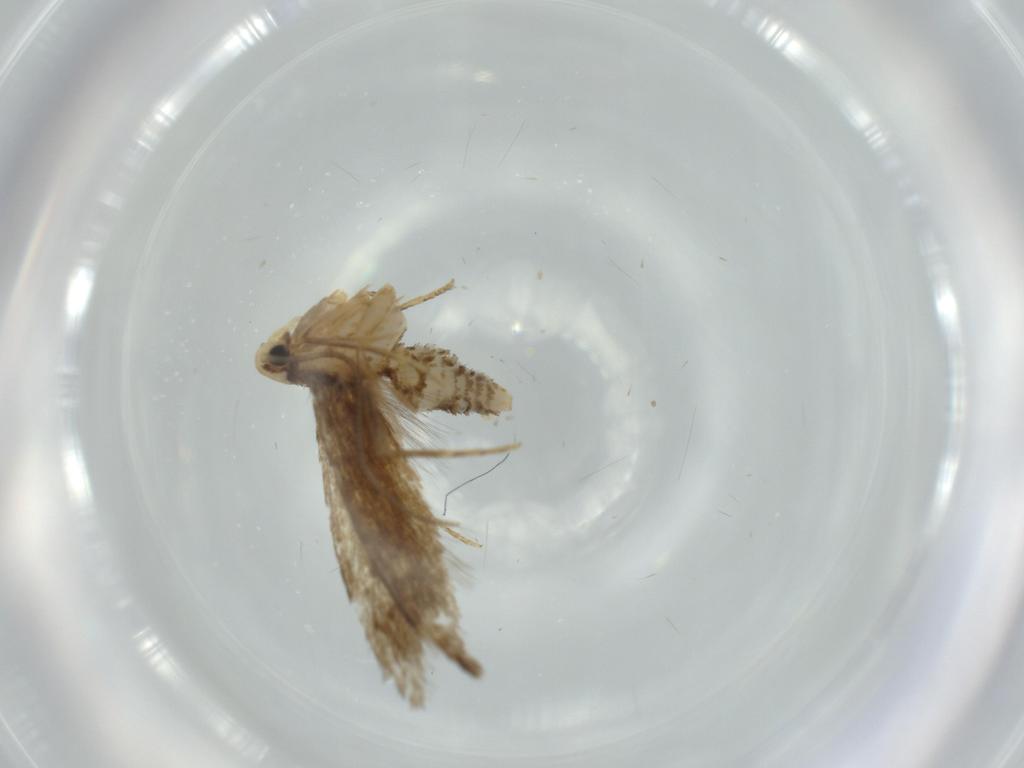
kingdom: Animalia
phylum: Arthropoda
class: Insecta
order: Lepidoptera
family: Tineidae
